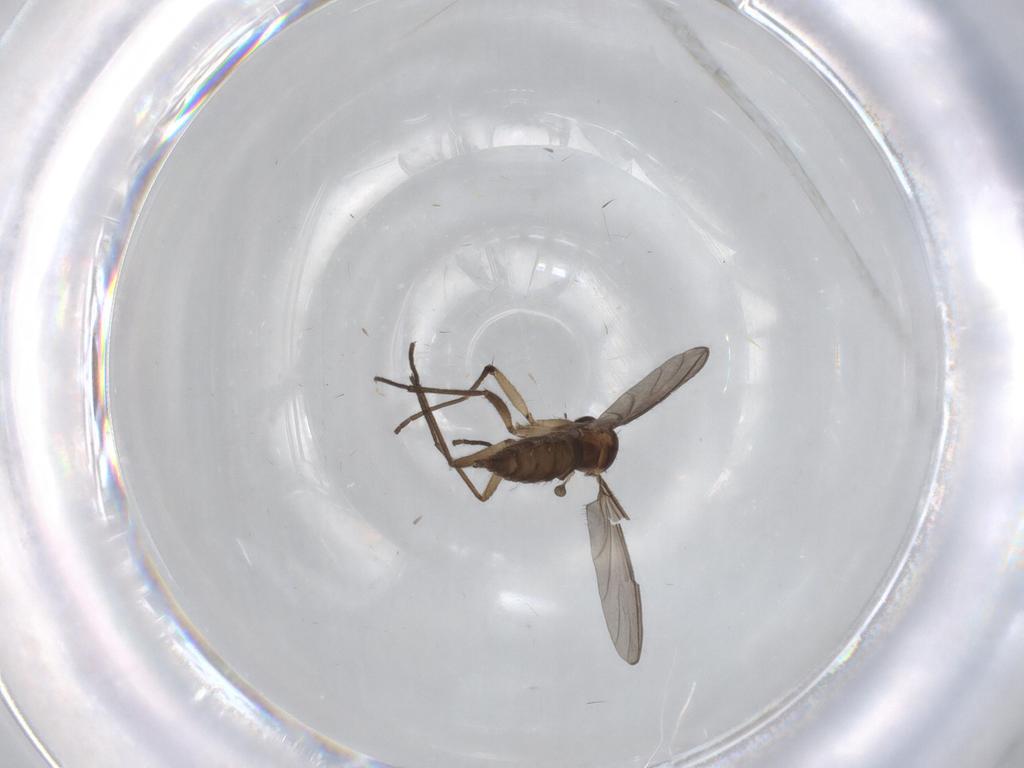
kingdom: Animalia
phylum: Arthropoda
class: Insecta
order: Diptera
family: Sciaridae
